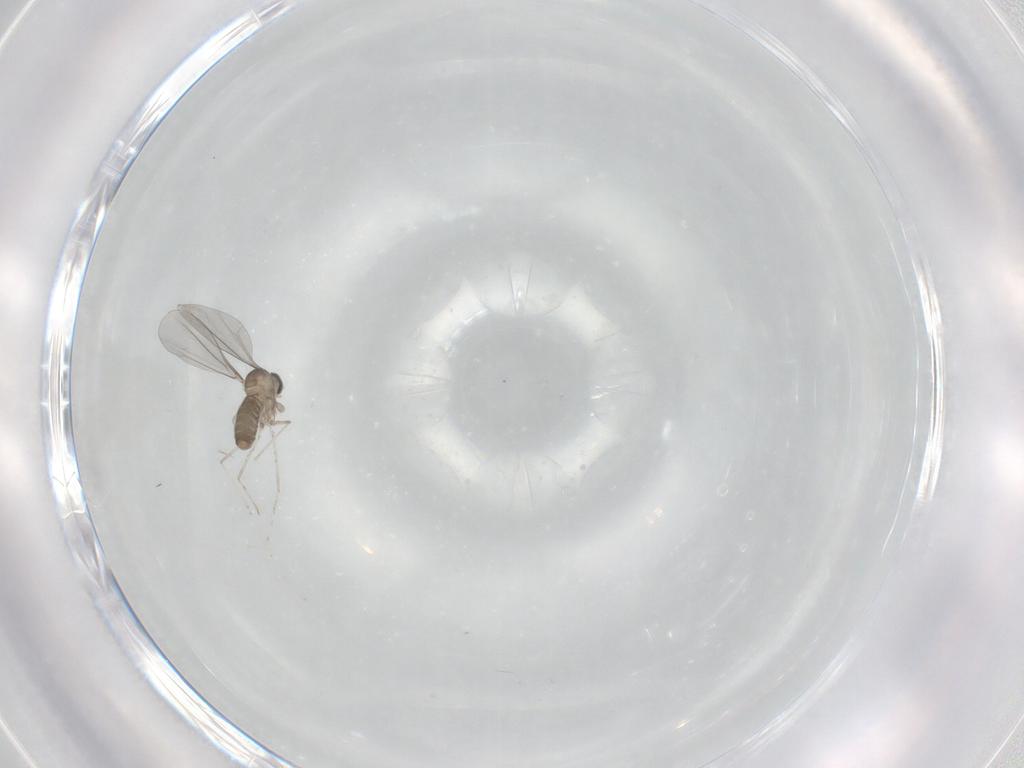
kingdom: Animalia
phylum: Arthropoda
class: Insecta
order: Diptera
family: Cecidomyiidae
